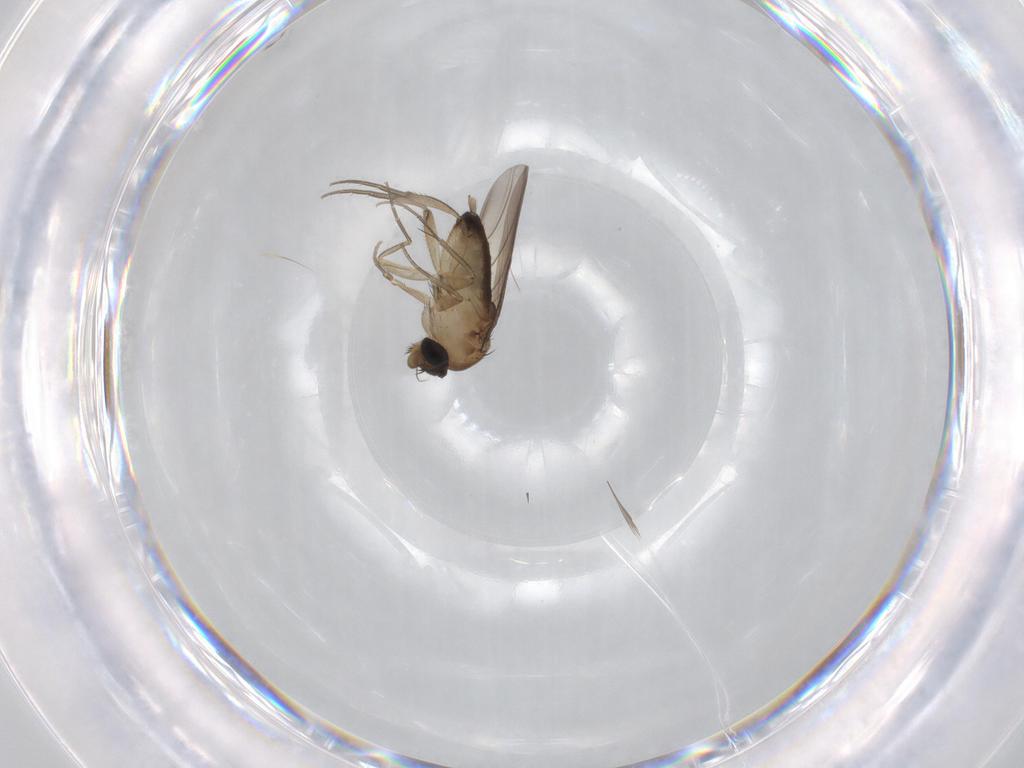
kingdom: Animalia
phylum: Arthropoda
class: Insecta
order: Diptera
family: Phoridae
